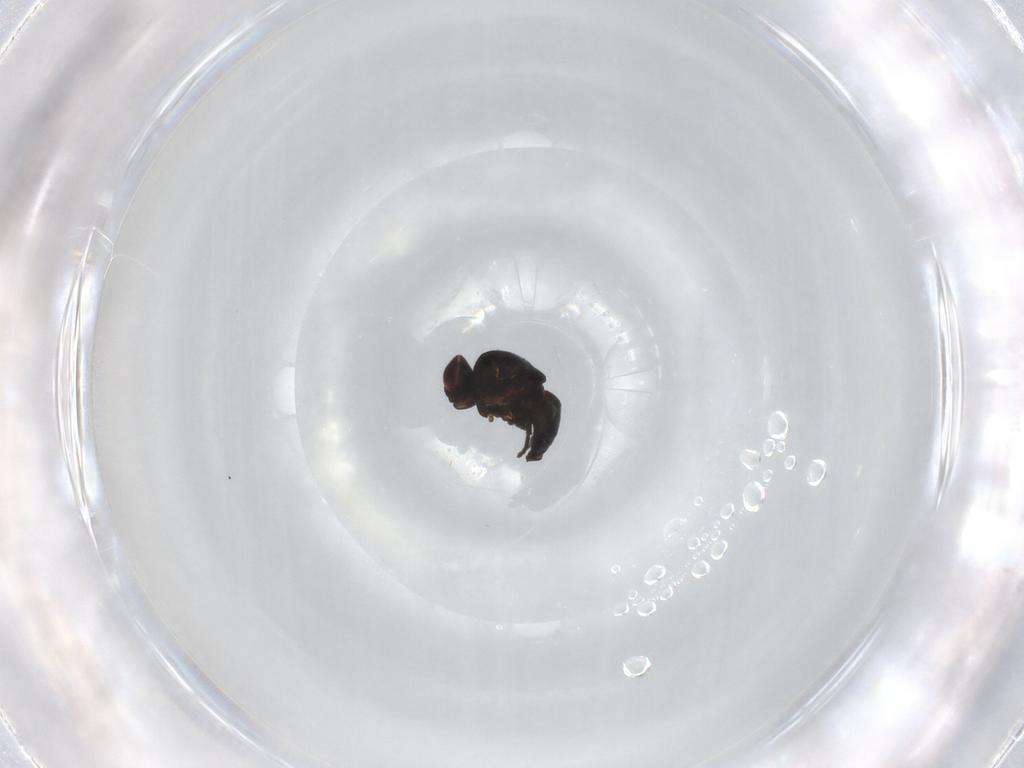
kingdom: Animalia
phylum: Arthropoda
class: Insecta
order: Diptera
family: Agromyzidae
